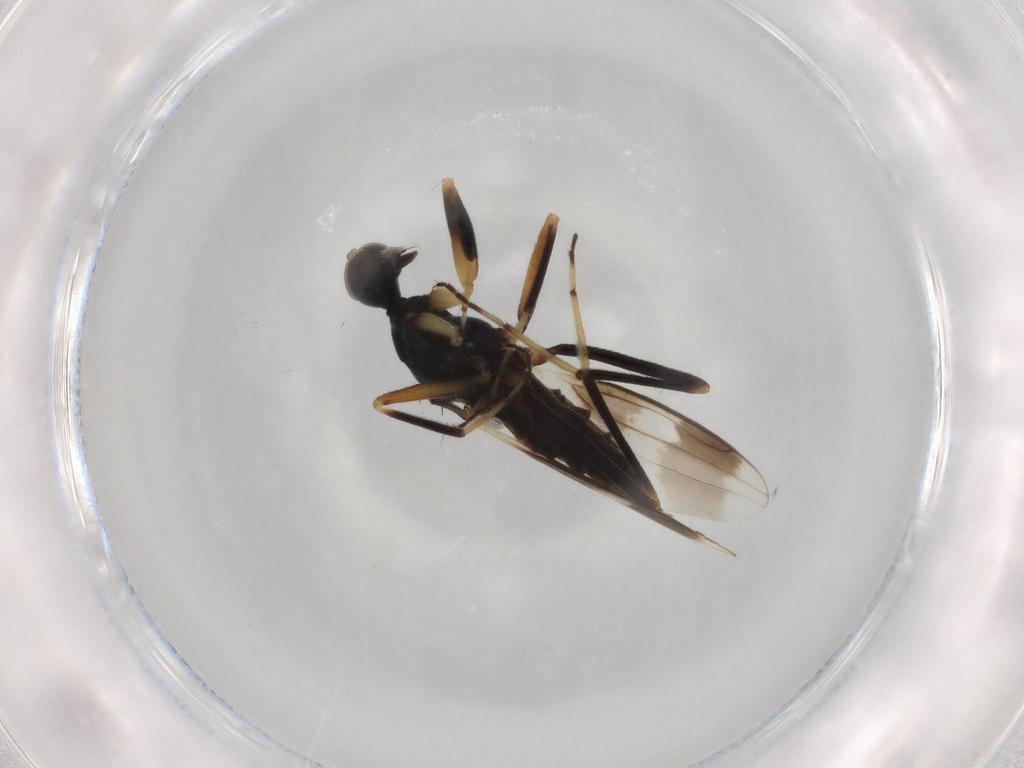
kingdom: Animalia
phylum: Arthropoda
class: Insecta
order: Diptera
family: Hybotidae
